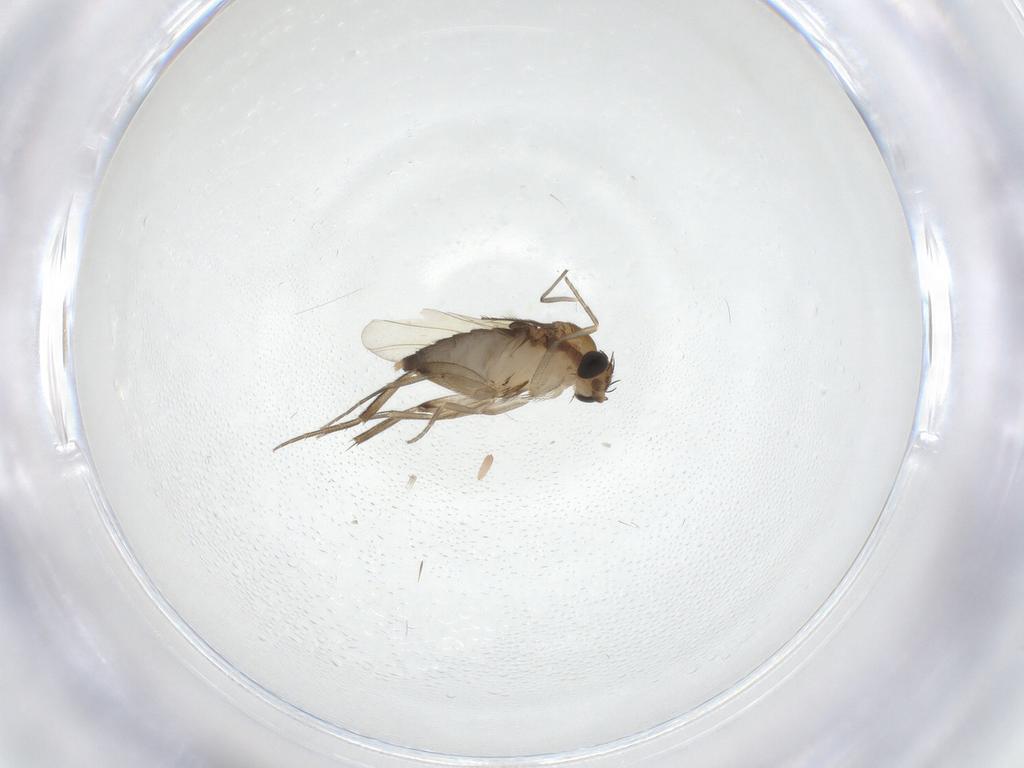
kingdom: Animalia
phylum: Arthropoda
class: Insecta
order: Diptera
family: Phoridae
